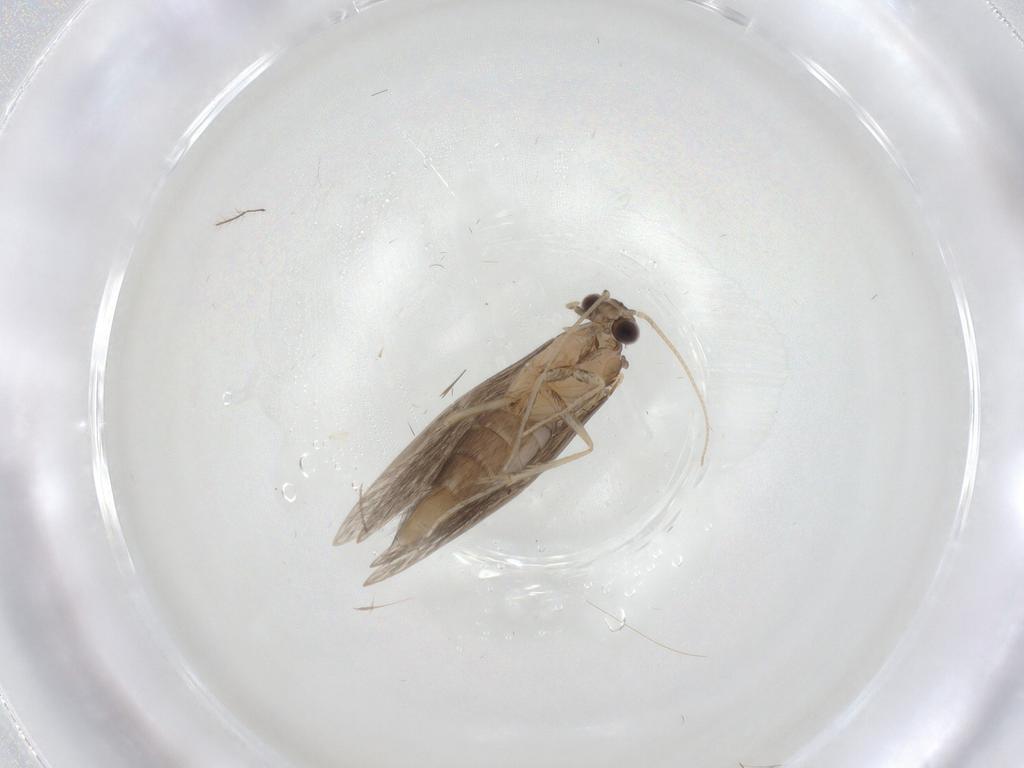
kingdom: Animalia
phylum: Arthropoda
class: Insecta
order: Trichoptera
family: Hydroptilidae
